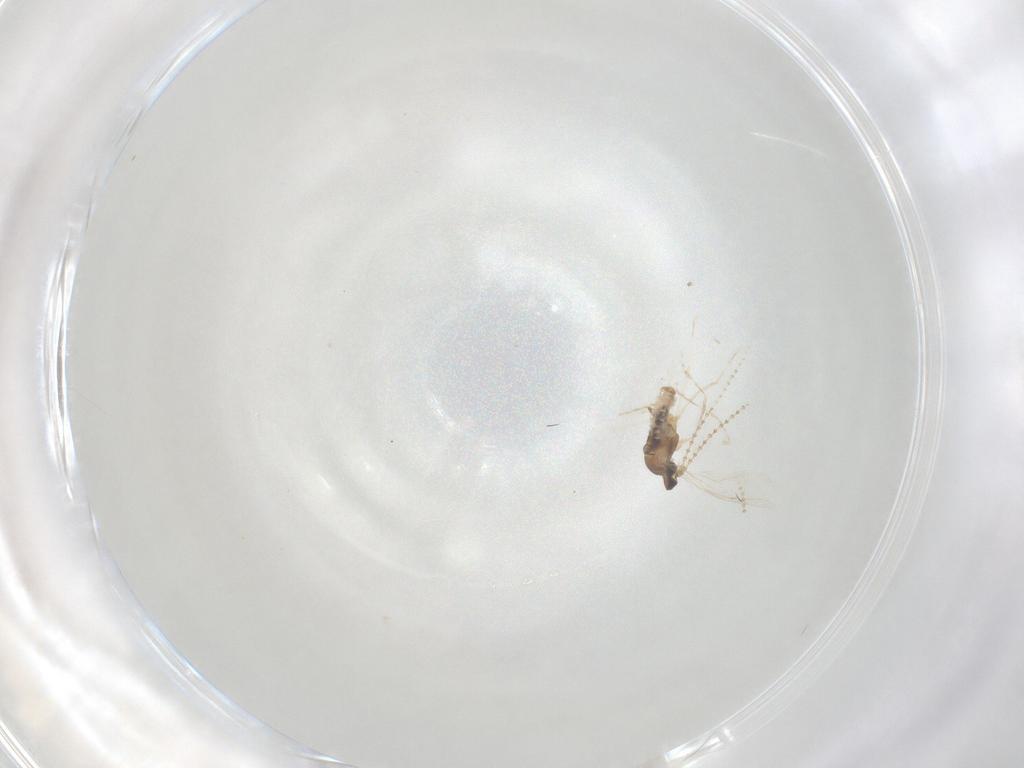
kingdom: Animalia
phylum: Arthropoda
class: Insecta
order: Diptera
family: Cecidomyiidae
